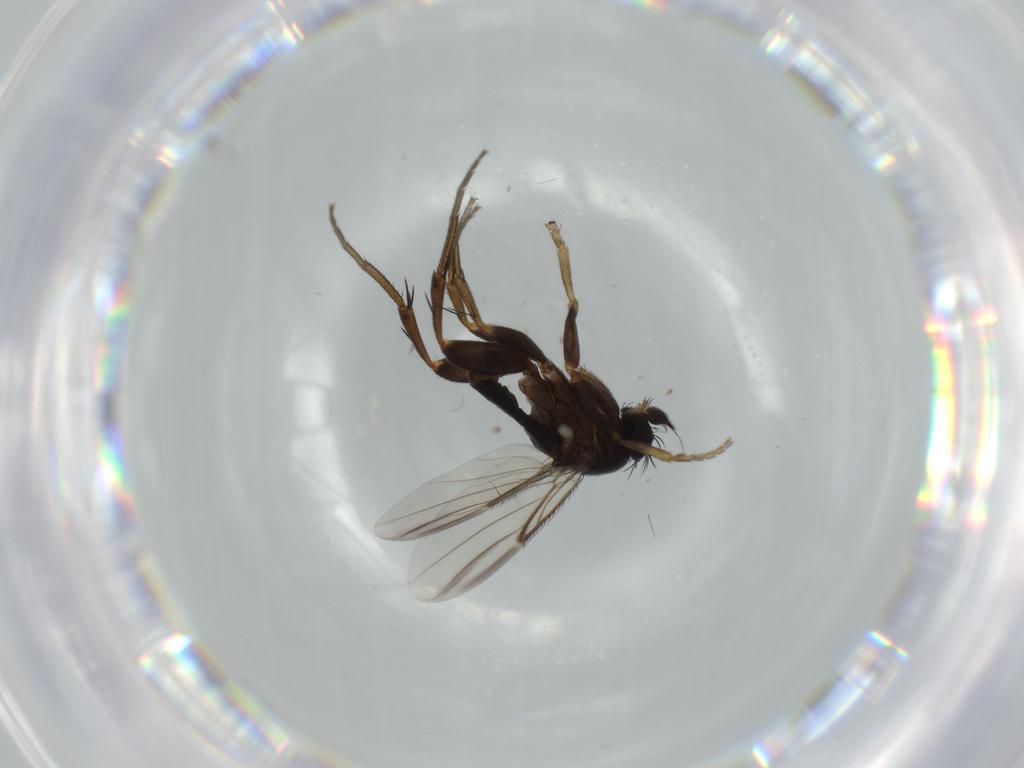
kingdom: Animalia
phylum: Arthropoda
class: Insecta
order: Diptera
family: Phoridae
